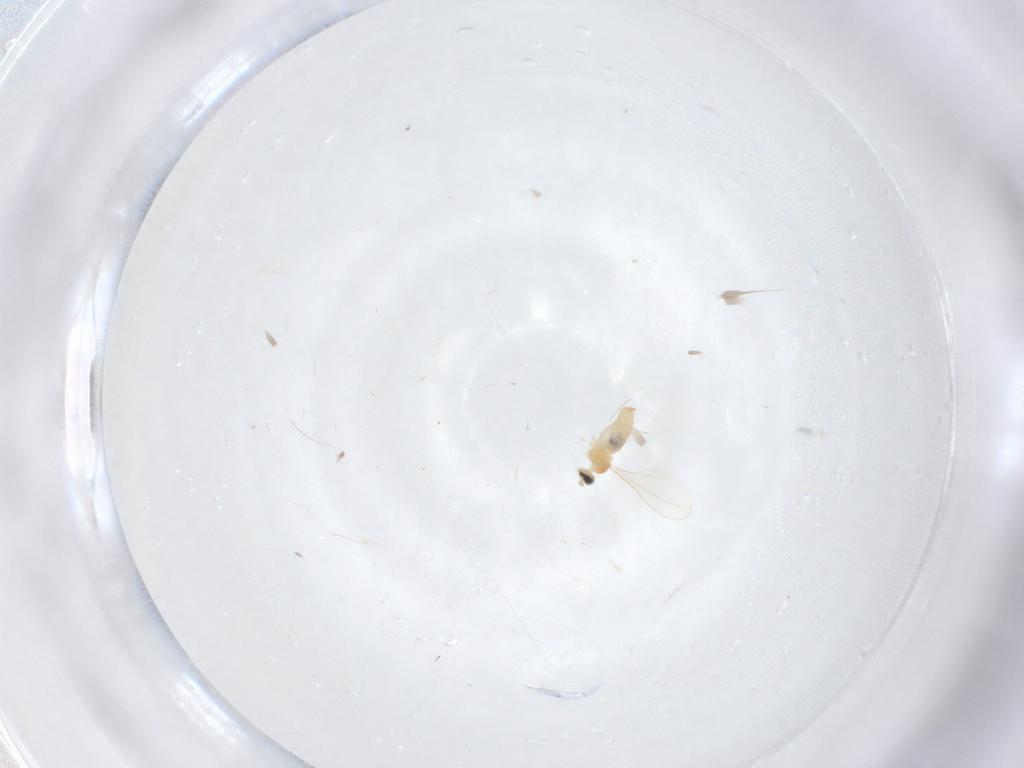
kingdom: Animalia
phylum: Arthropoda
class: Insecta
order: Diptera
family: Cecidomyiidae
